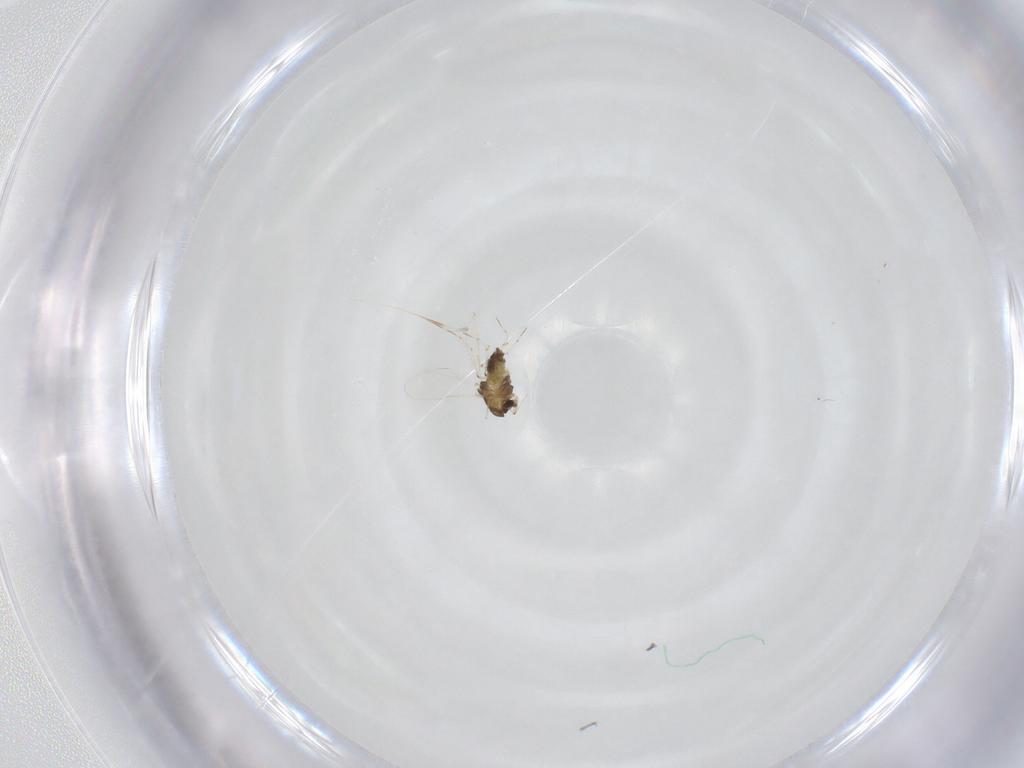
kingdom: Animalia
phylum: Arthropoda
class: Insecta
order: Diptera
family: Chironomidae
